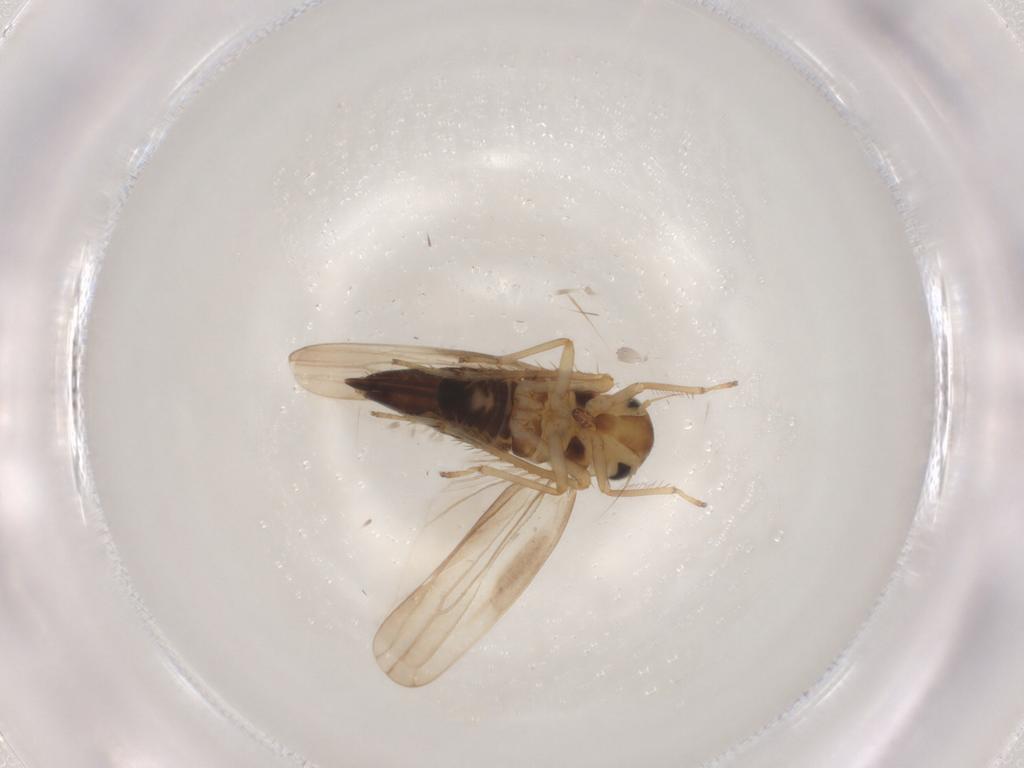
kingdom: Animalia
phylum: Arthropoda
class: Insecta
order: Hemiptera
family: Cicadellidae
